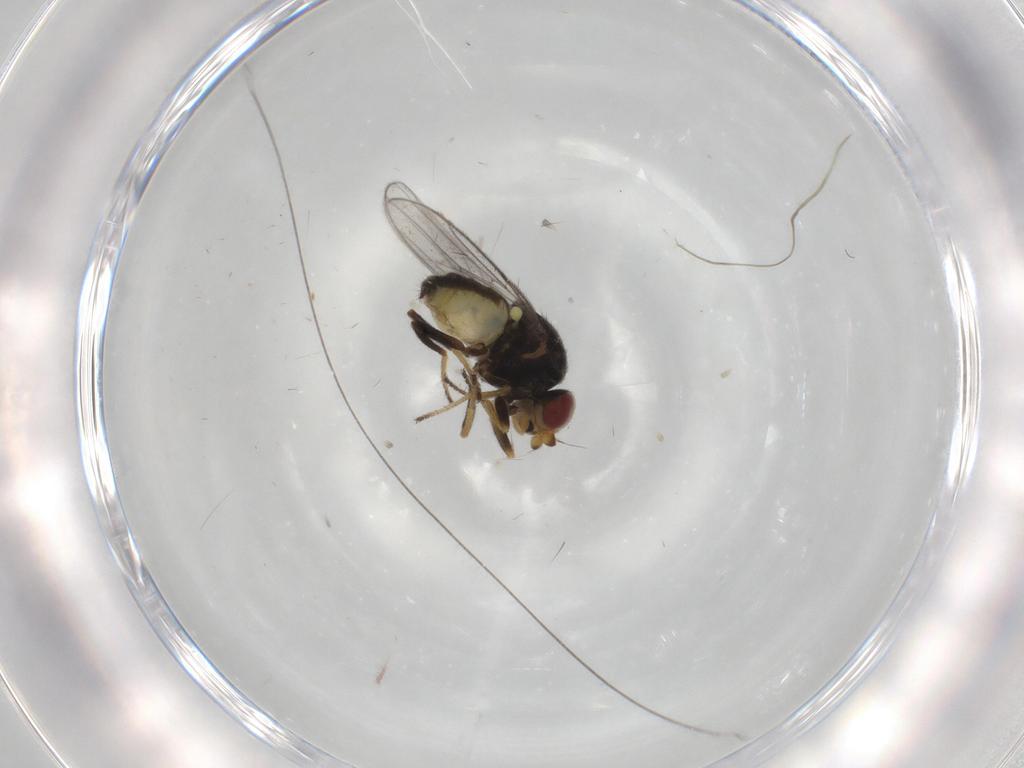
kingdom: Animalia
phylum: Arthropoda
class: Insecta
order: Diptera
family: Chloropidae
